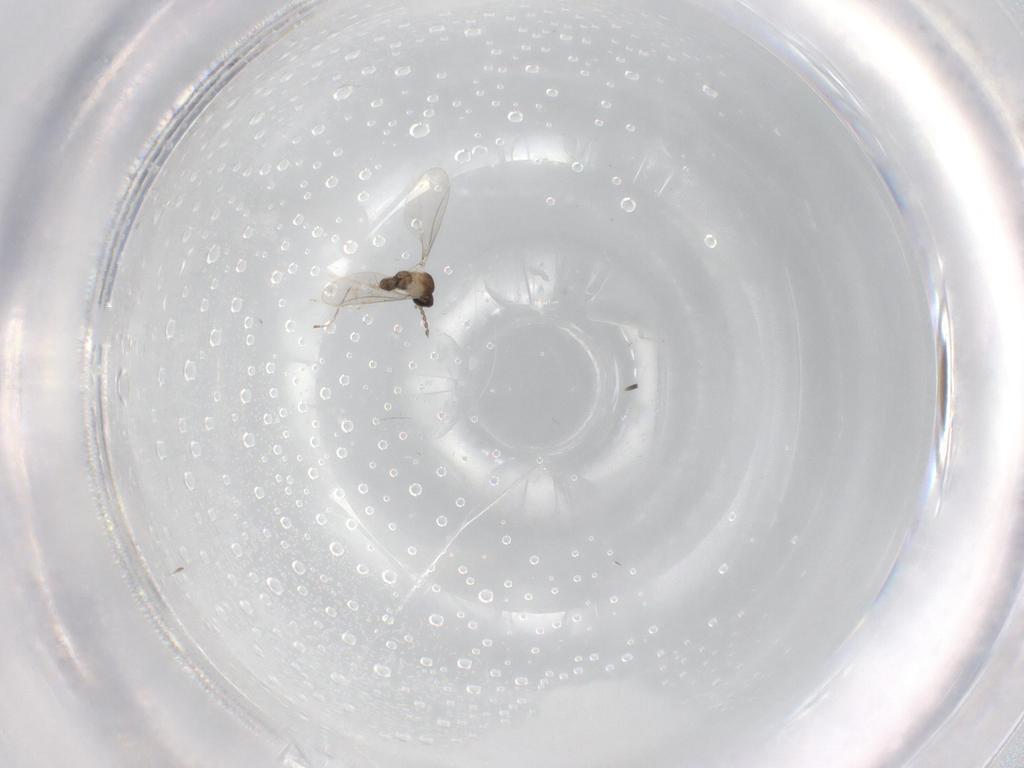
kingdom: Animalia
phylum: Arthropoda
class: Insecta
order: Diptera
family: Cecidomyiidae
